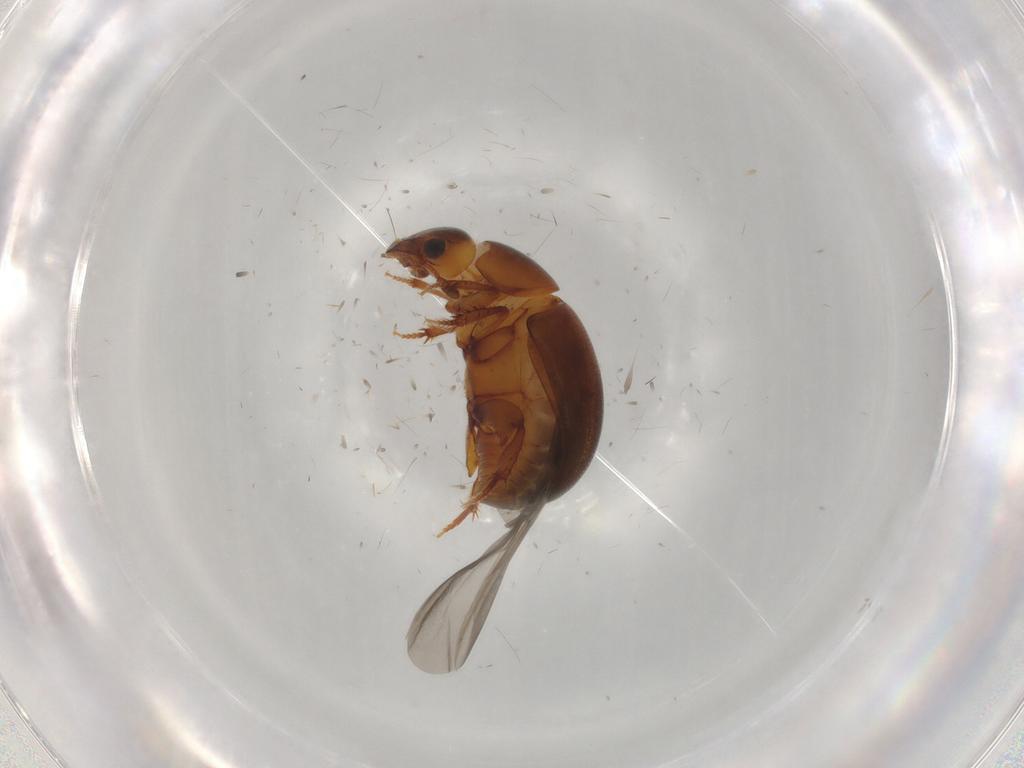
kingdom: Animalia
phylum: Arthropoda
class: Insecta
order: Coleoptera
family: Leiodidae
